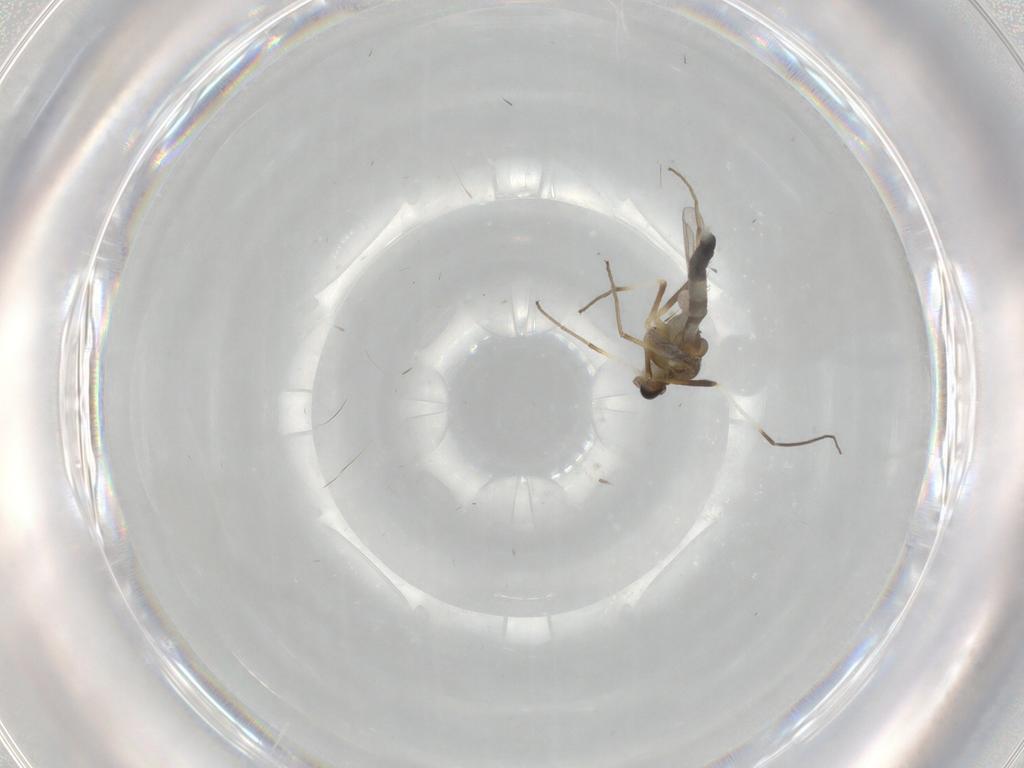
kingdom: Animalia
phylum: Arthropoda
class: Insecta
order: Diptera
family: Chironomidae
